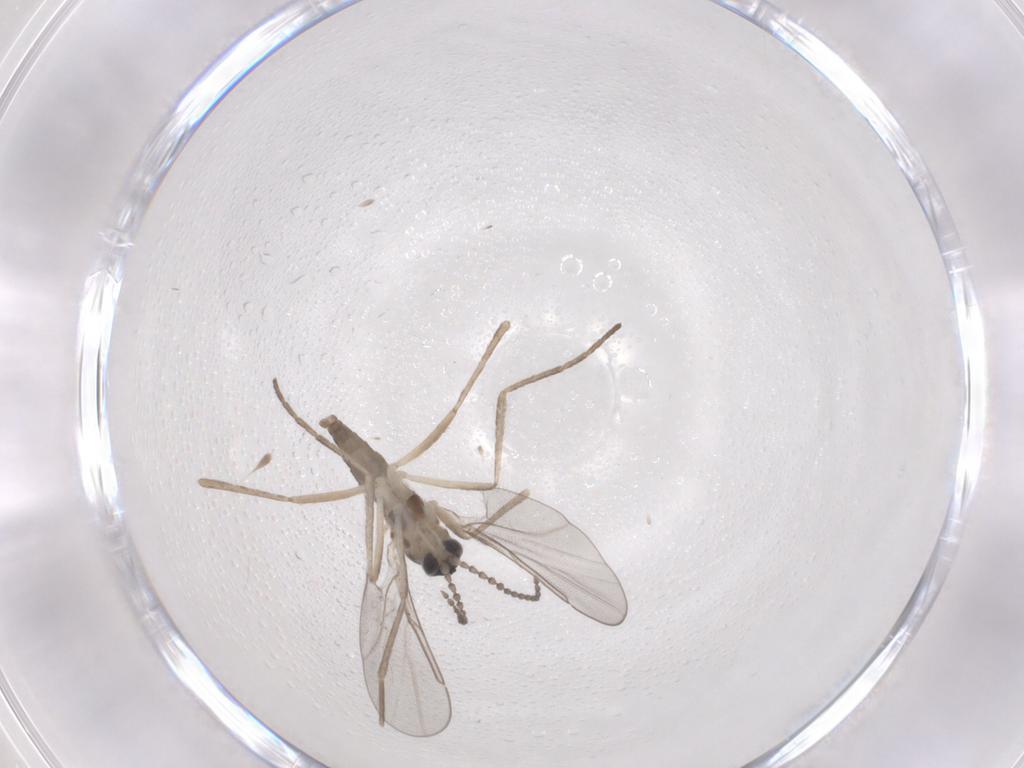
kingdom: Animalia
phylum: Arthropoda
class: Insecta
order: Diptera
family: Cecidomyiidae
